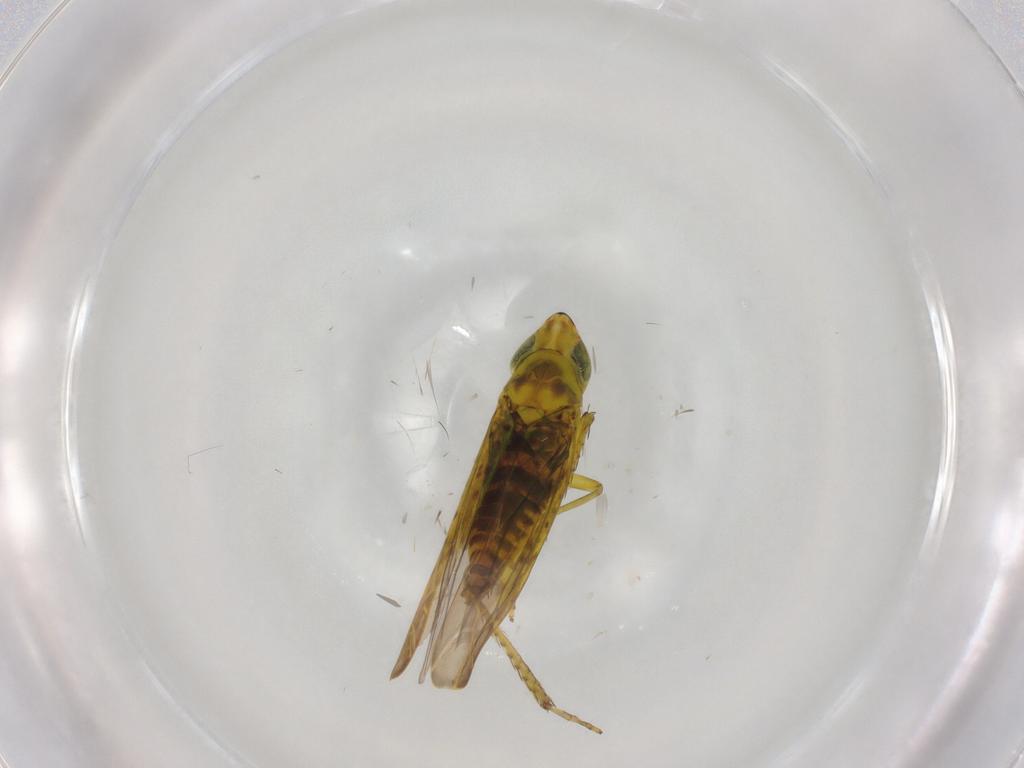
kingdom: Animalia
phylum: Arthropoda
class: Insecta
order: Hemiptera
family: Cicadellidae
